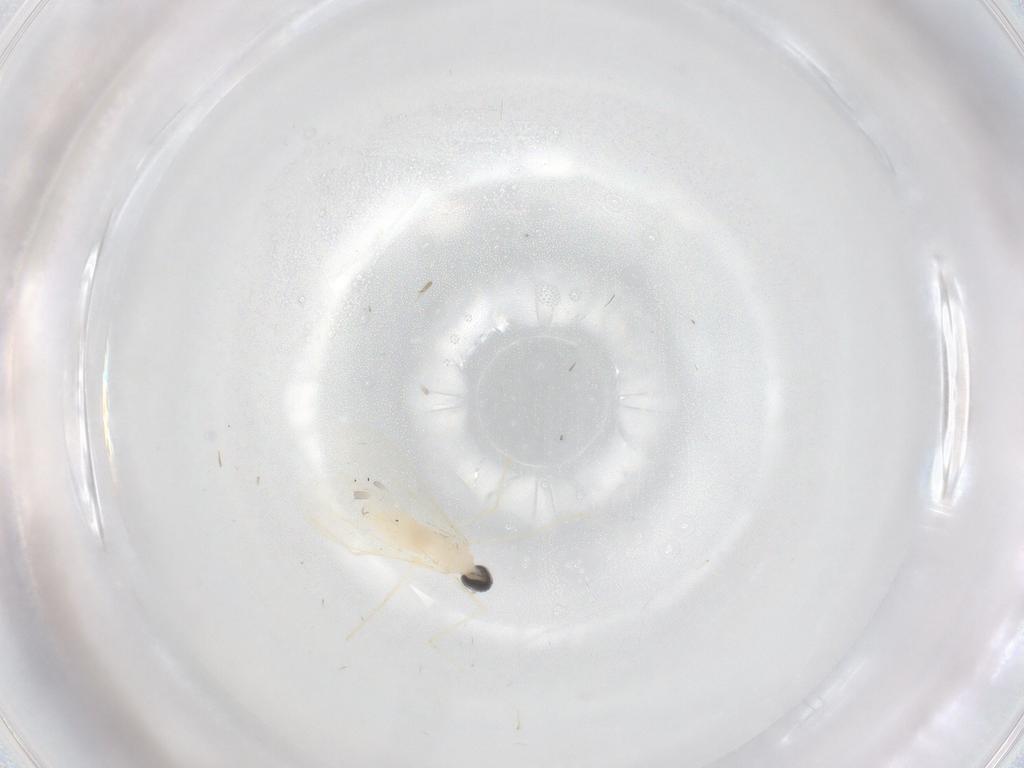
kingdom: Animalia
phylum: Arthropoda
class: Insecta
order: Diptera
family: Cecidomyiidae
